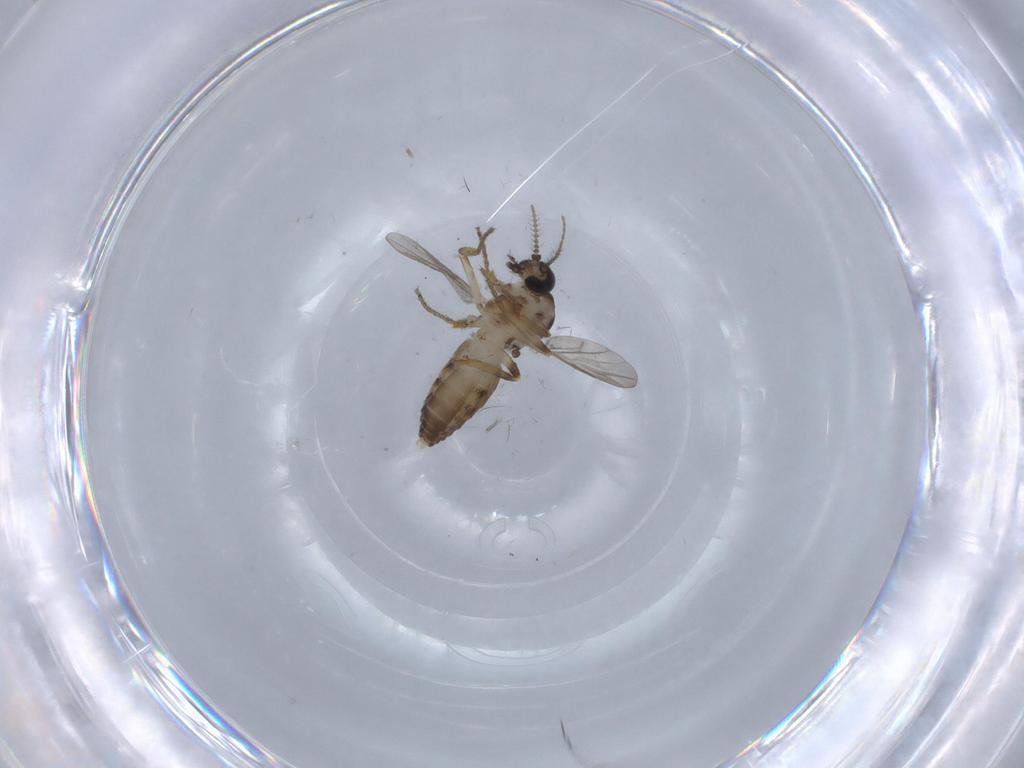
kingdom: Animalia
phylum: Arthropoda
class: Insecta
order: Diptera
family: Ceratopogonidae
